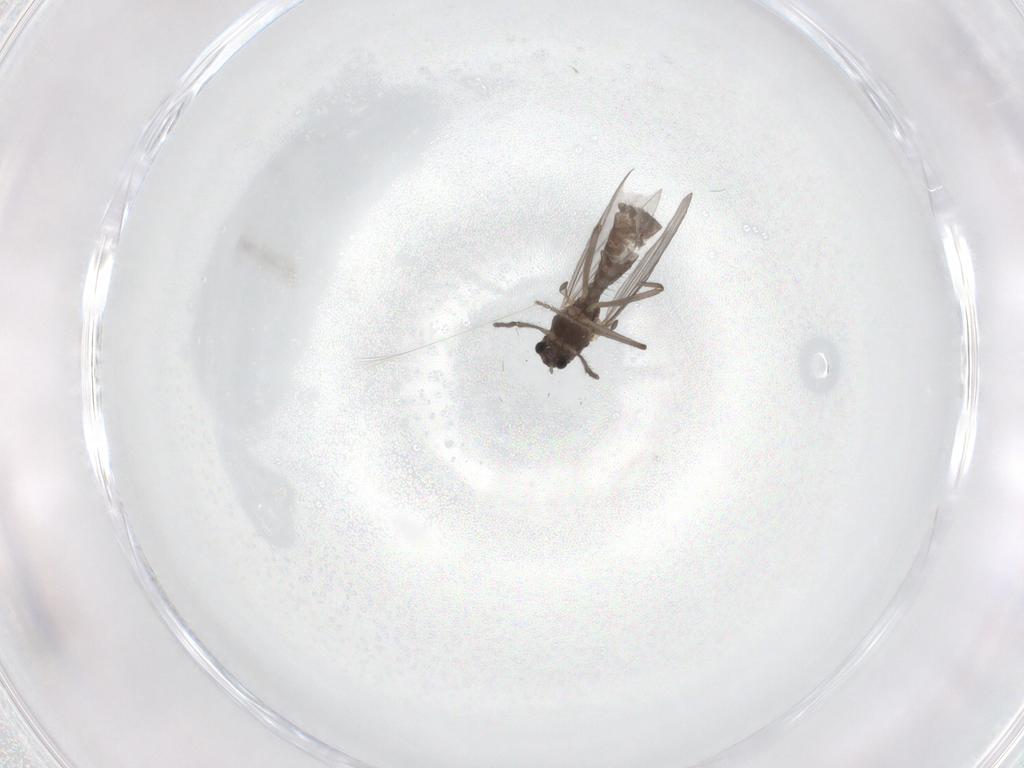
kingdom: Animalia
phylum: Arthropoda
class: Insecta
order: Diptera
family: Chironomidae
